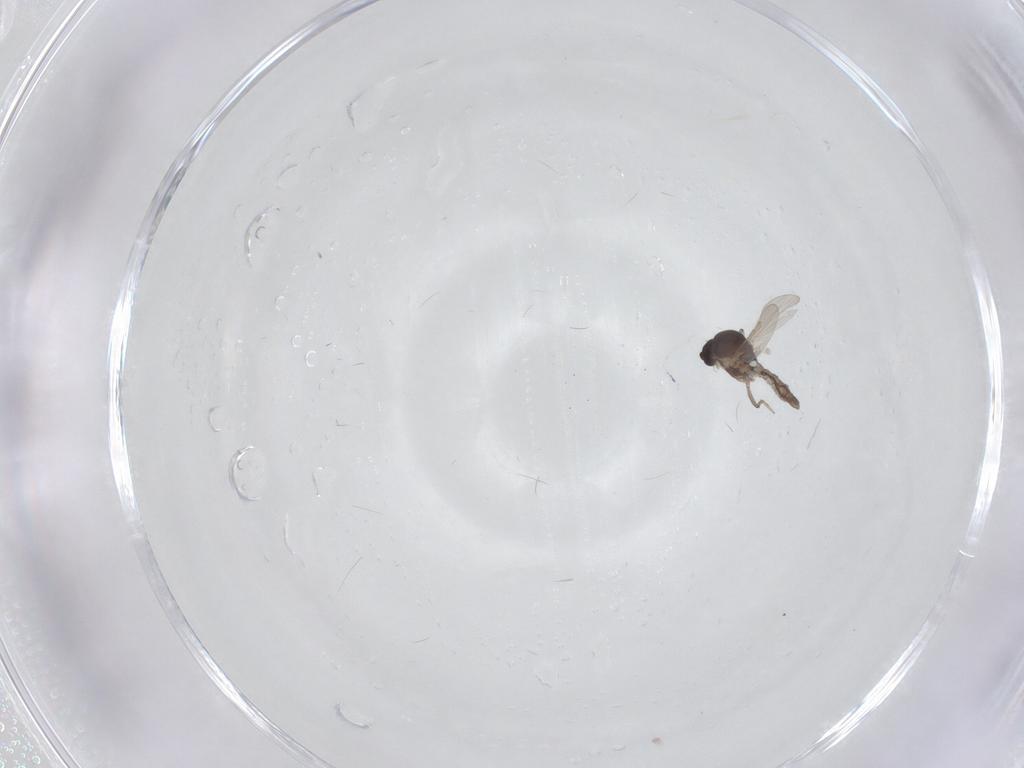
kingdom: Animalia
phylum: Arthropoda
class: Insecta
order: Diptera
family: Ceratopogonidae
